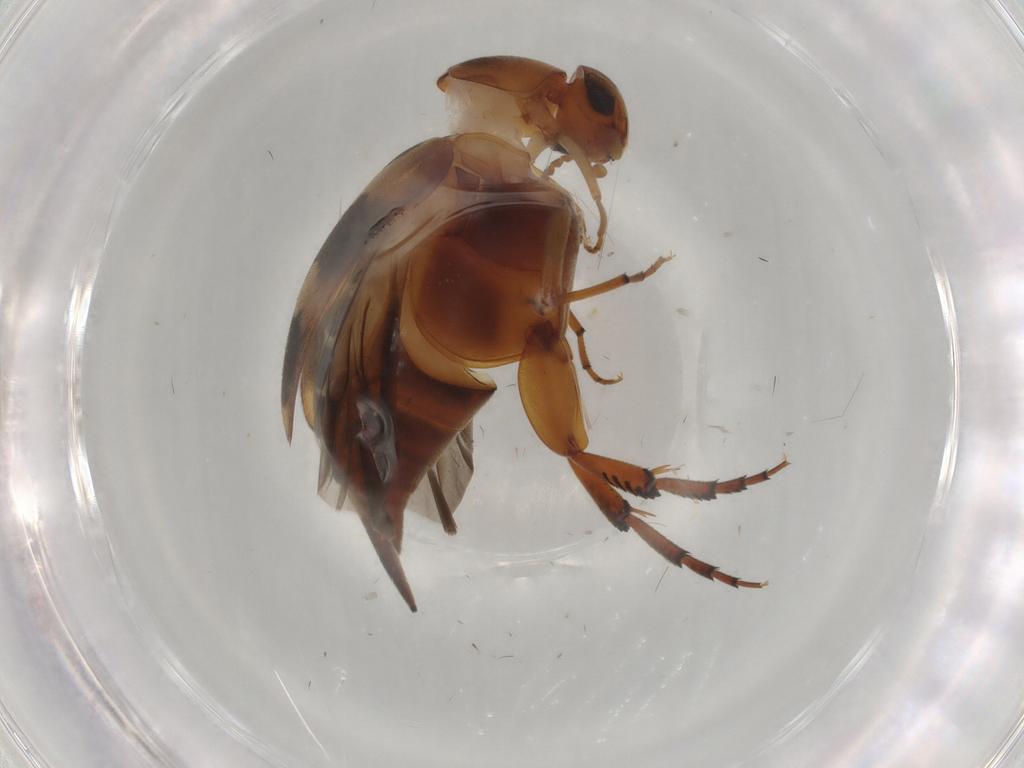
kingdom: Animalia
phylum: Arthropoda
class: Insecta
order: Coleoptera
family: Mordellidae
